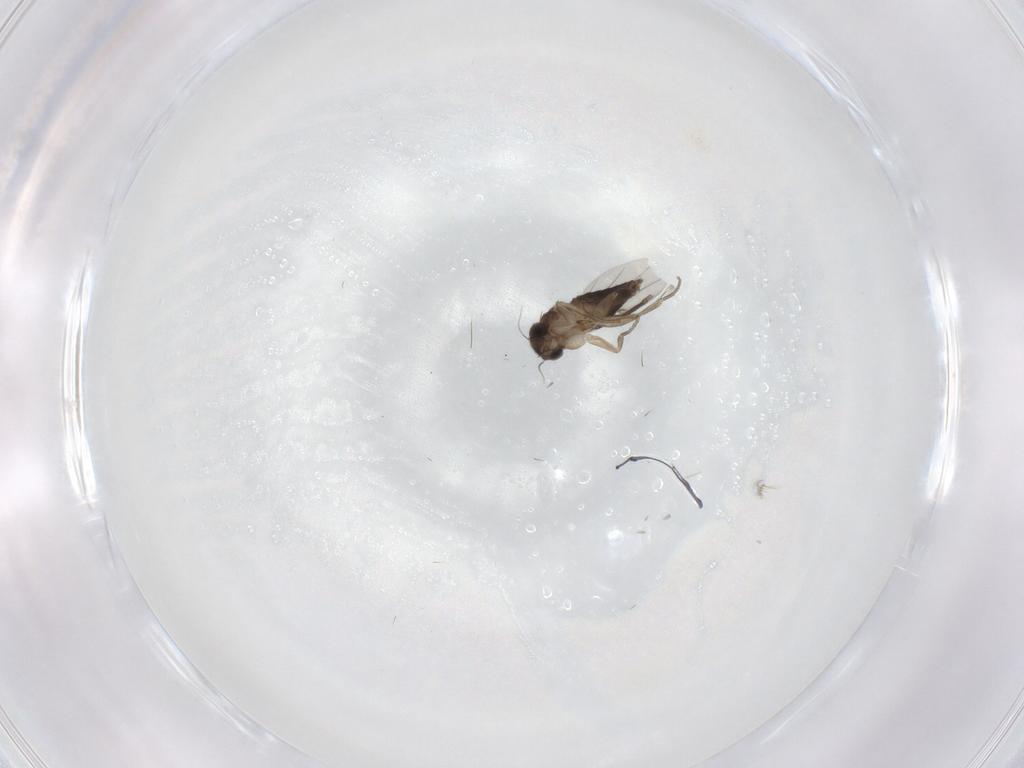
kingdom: Animalia
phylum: Arthropoda
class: Insecta
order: Diptera
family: Phoridae
